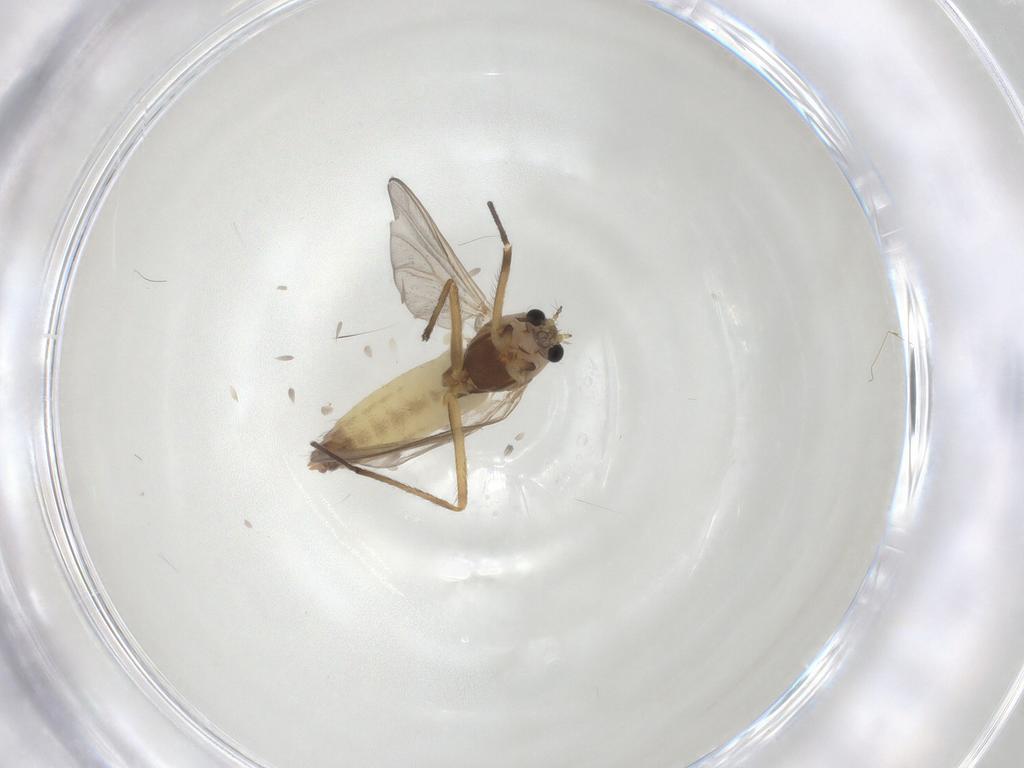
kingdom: Animalia
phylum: Arthropoda
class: Insecta
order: Diptera
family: Chironomidae
